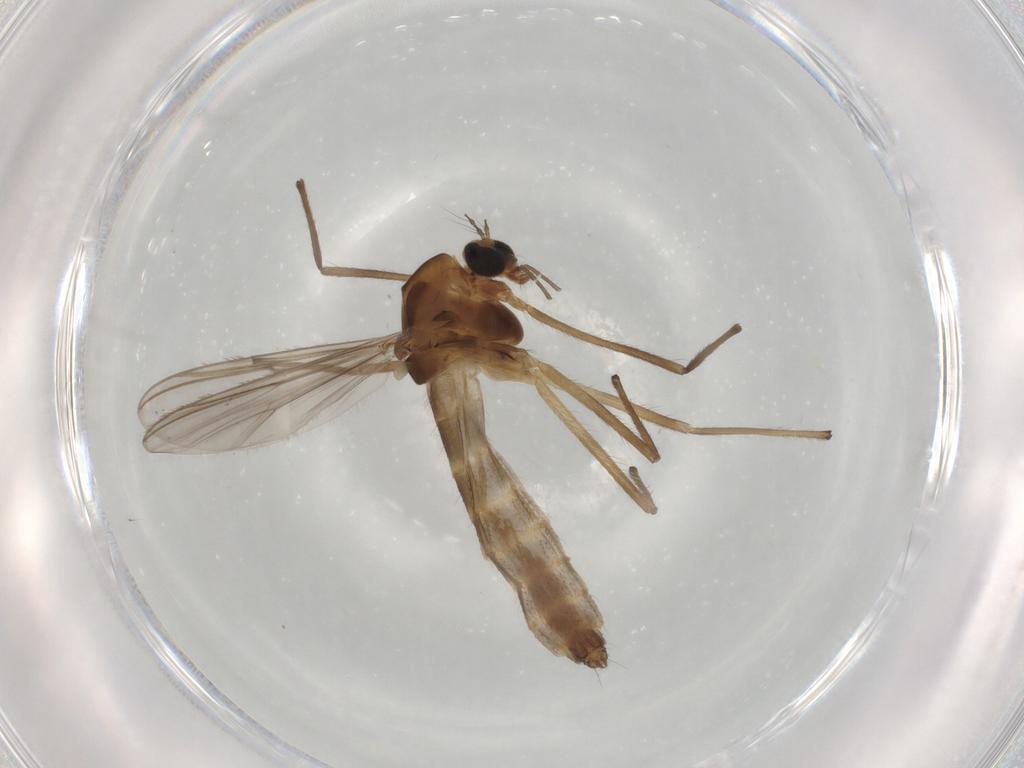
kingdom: Animalia
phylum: Arthropoda
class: Insecta
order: Diptera
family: Chironomidae
